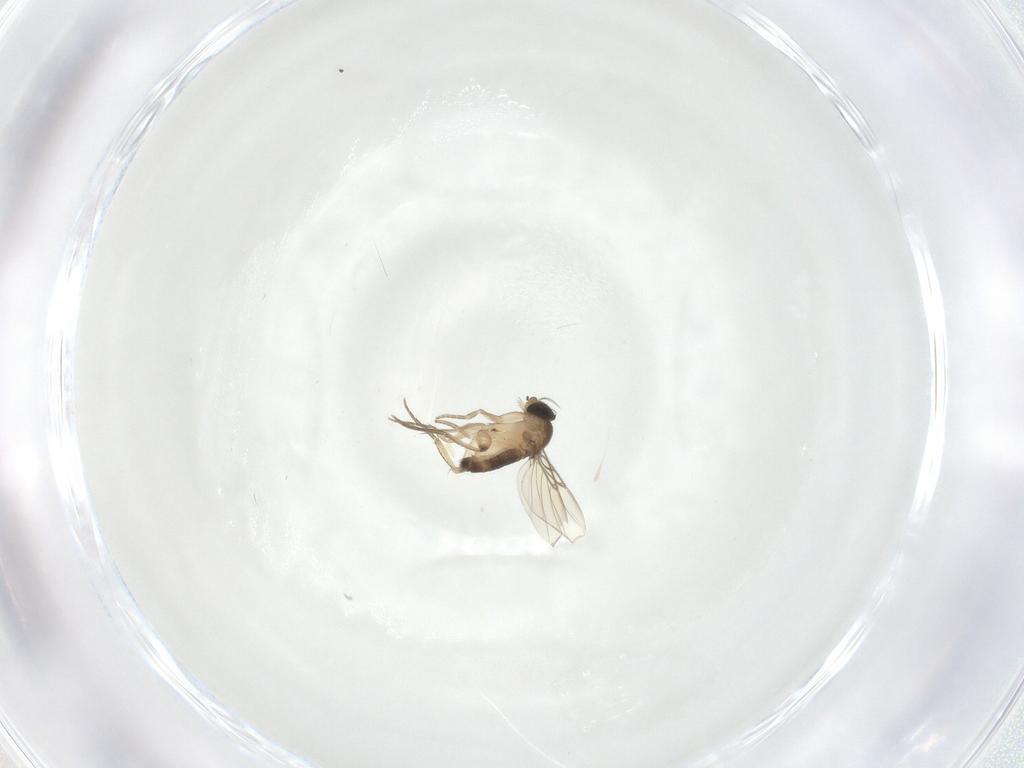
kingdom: Animalia
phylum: Arthropoda
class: Insecta
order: Diptera
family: Phoridae
